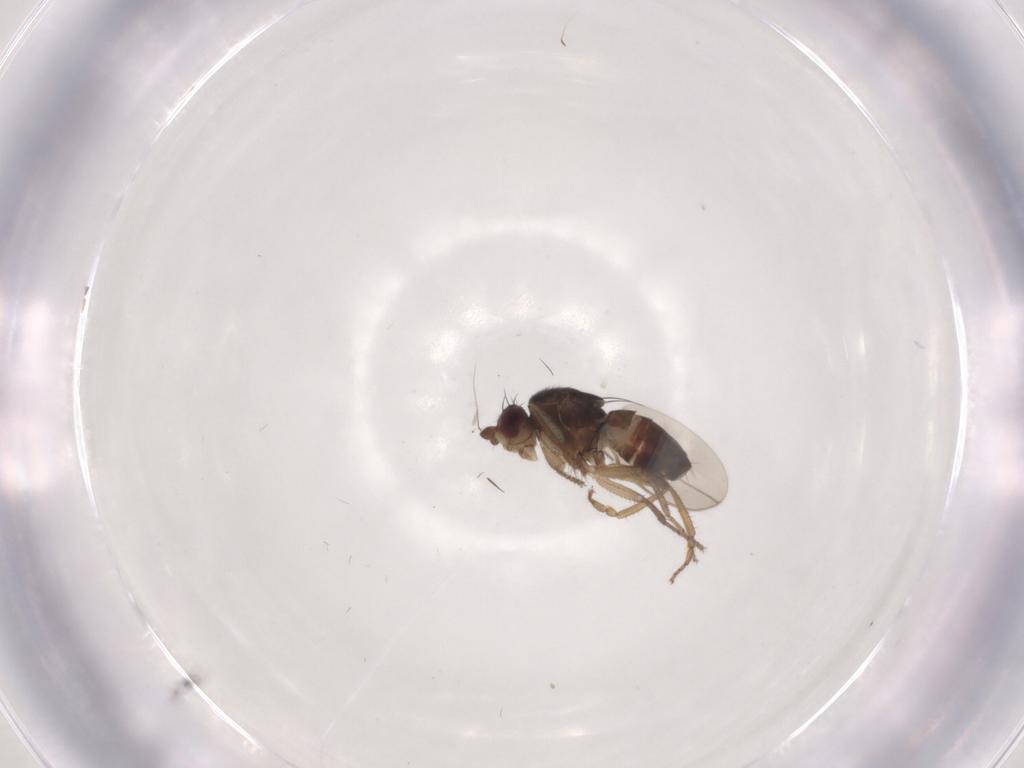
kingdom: Animalia
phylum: Arthropoda
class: Insecta
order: Diptera
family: Sphaeroceridae
